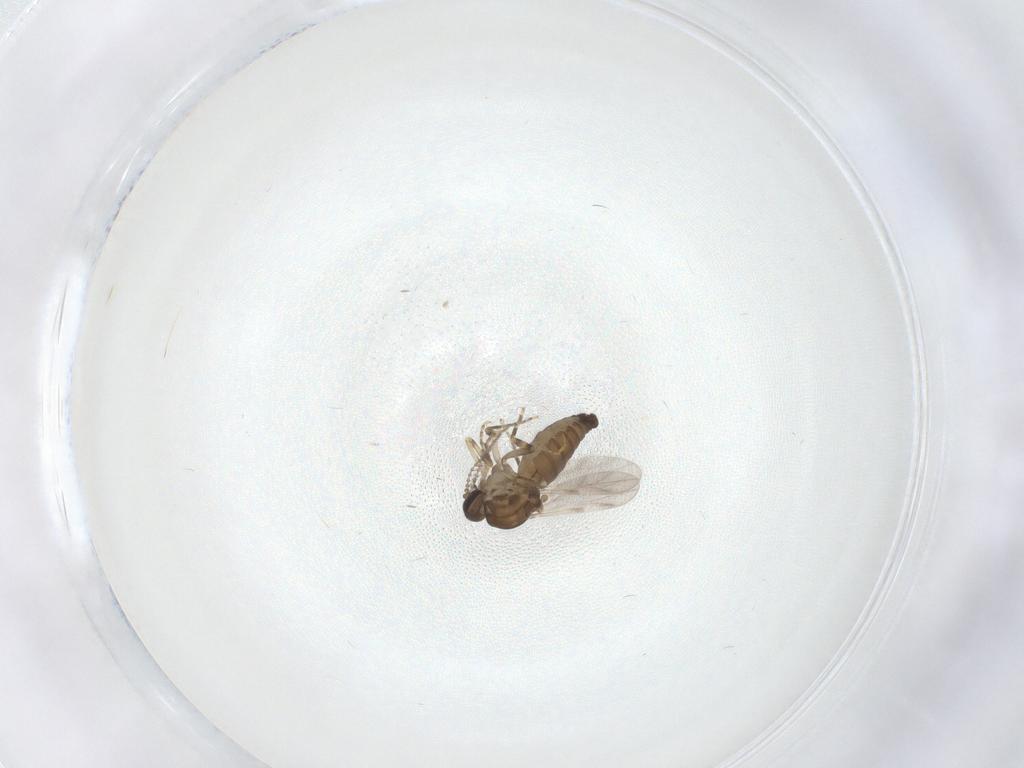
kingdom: Animalia
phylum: Arthropoda
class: Insecta
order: Diptera
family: Ceratopogonidae
